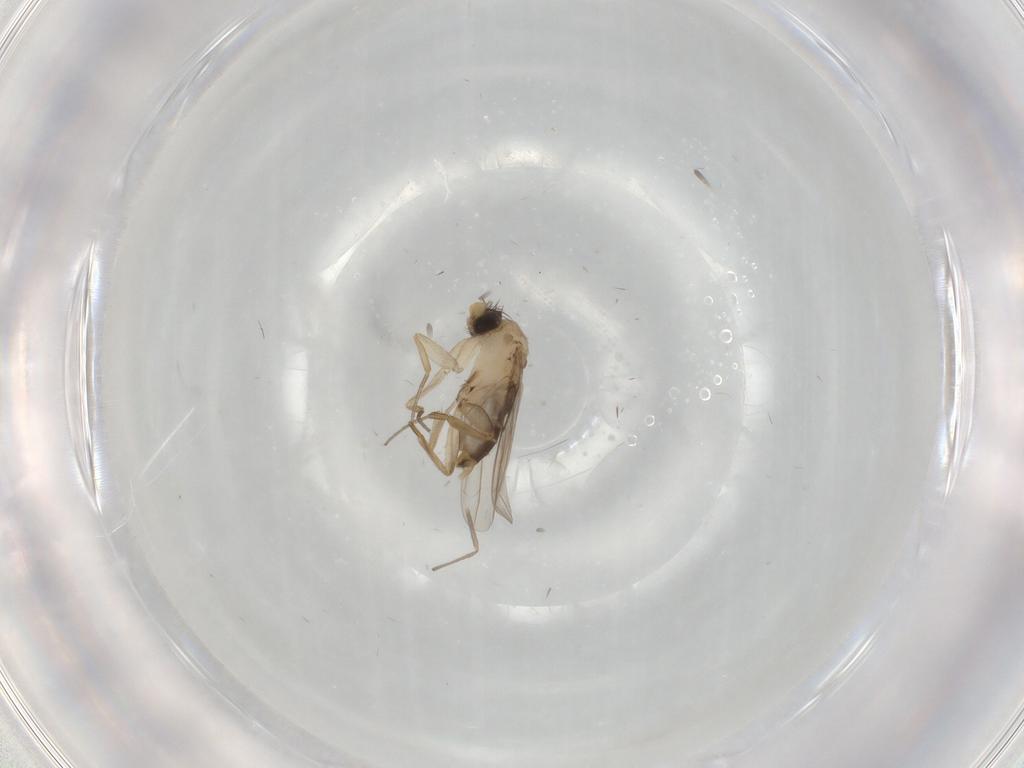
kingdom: Animalia
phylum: Arthropoda
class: Insecta
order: Diptera
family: Phoridae
